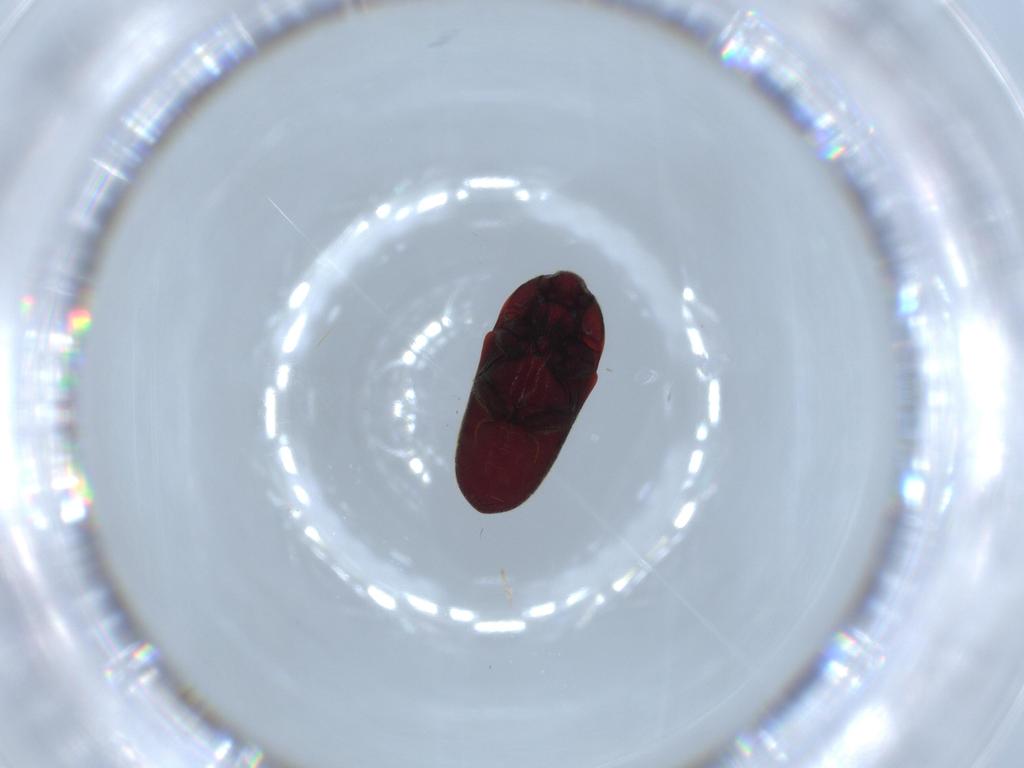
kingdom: Animalia
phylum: Arthropoda
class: Insecta
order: Coleoptera
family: Throscidae
